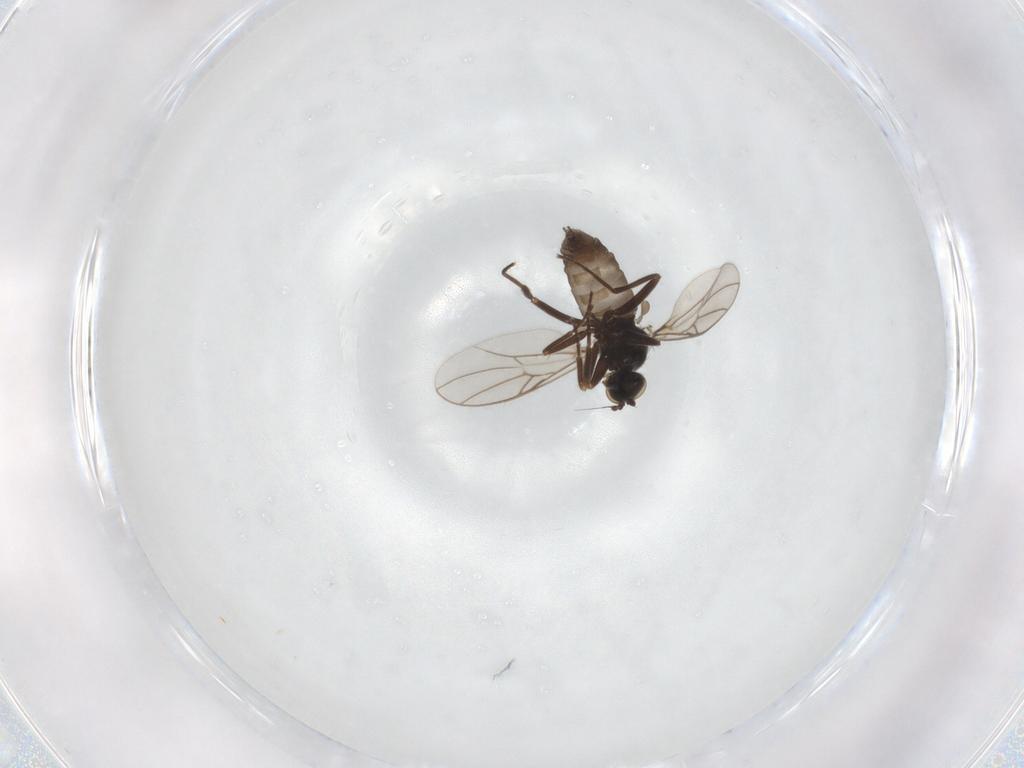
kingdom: Animalia
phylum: Arthropoda
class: Insecta
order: Diptera
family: Hybotidae
